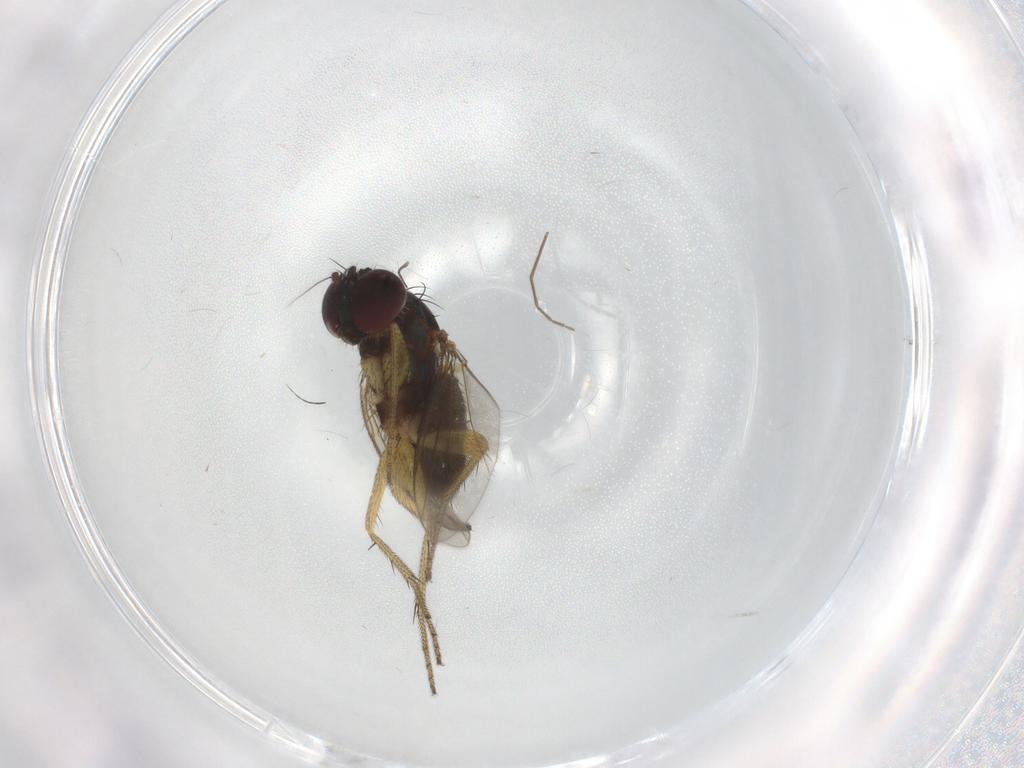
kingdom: Animalia
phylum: Arthropoda
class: Insecta
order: Diptera
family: Chironomidae
